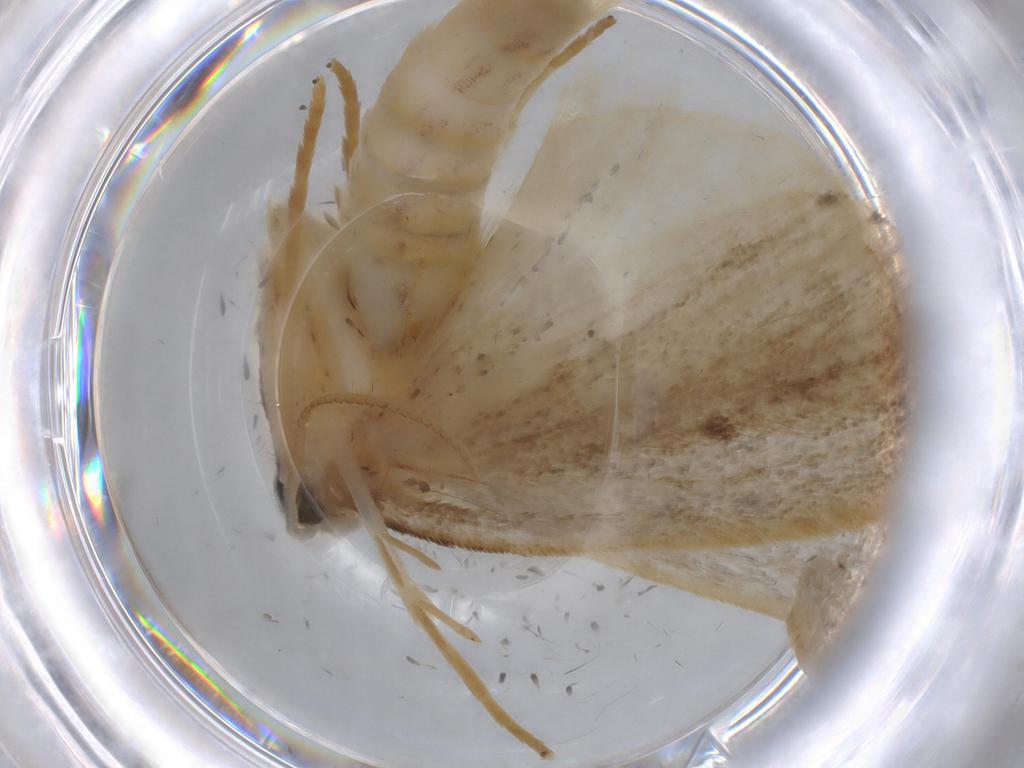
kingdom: Animalia
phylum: Arthropoda
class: Insecta
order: Lepidoptera
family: Crambidae
